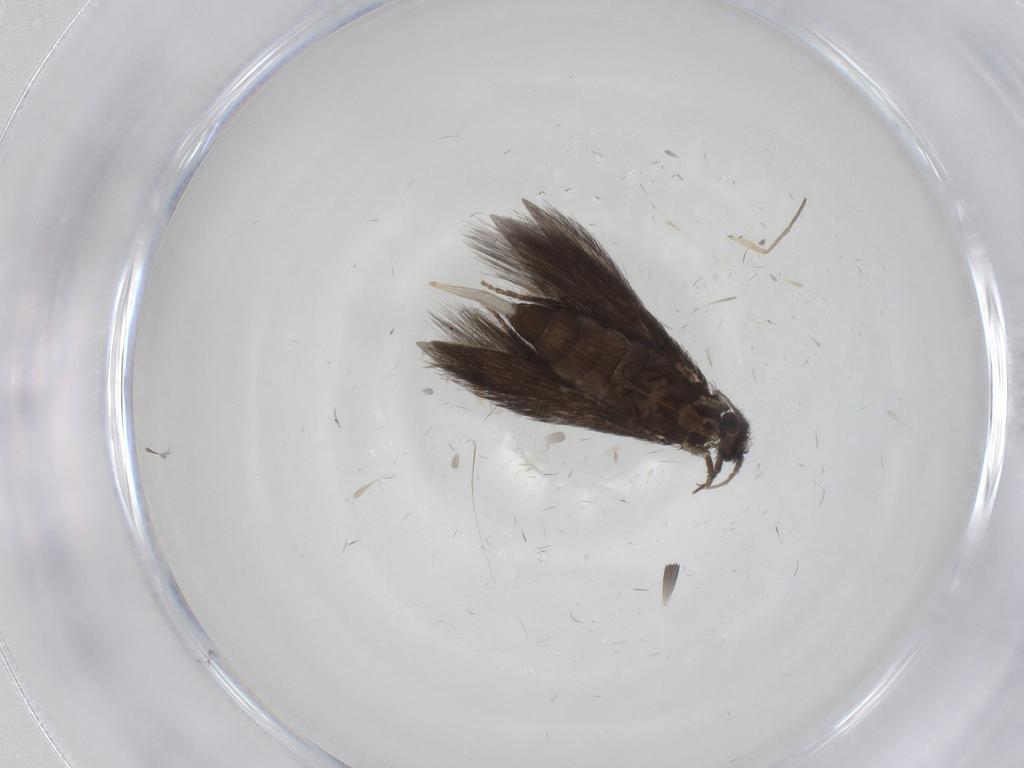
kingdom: Animalia
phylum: Arthropoda
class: Insecta
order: Trichoptera
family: Hydroptilidae
